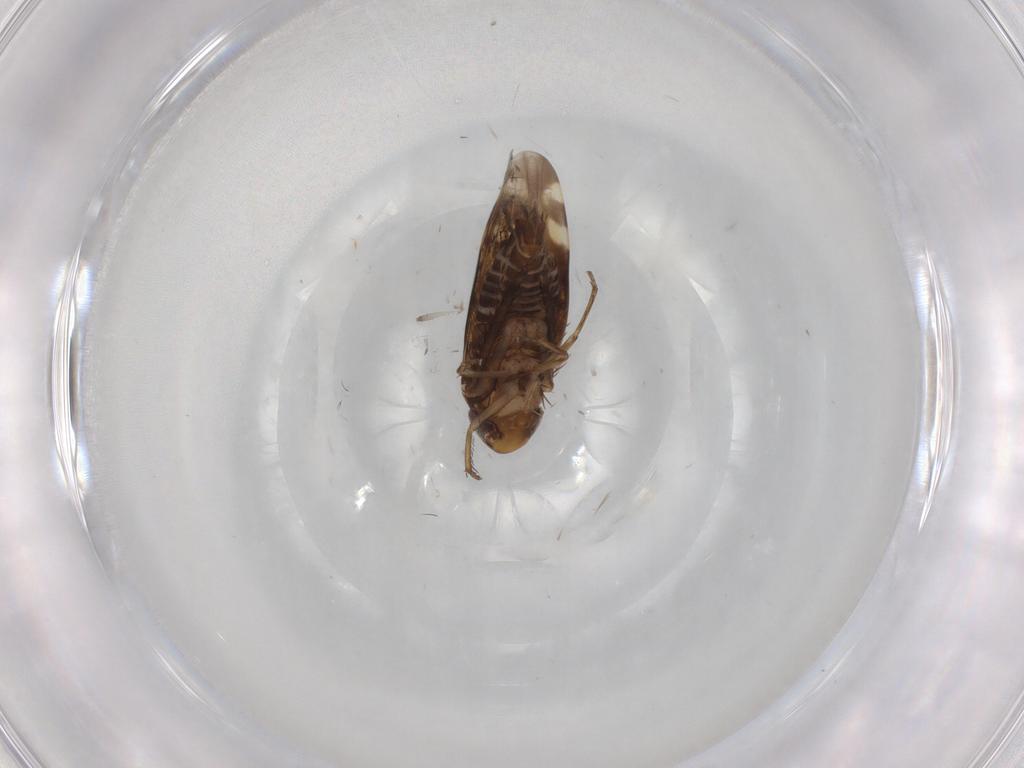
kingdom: Animalia
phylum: Arthropoda
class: Insecta
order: Hemiptera
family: Cicadellidae
